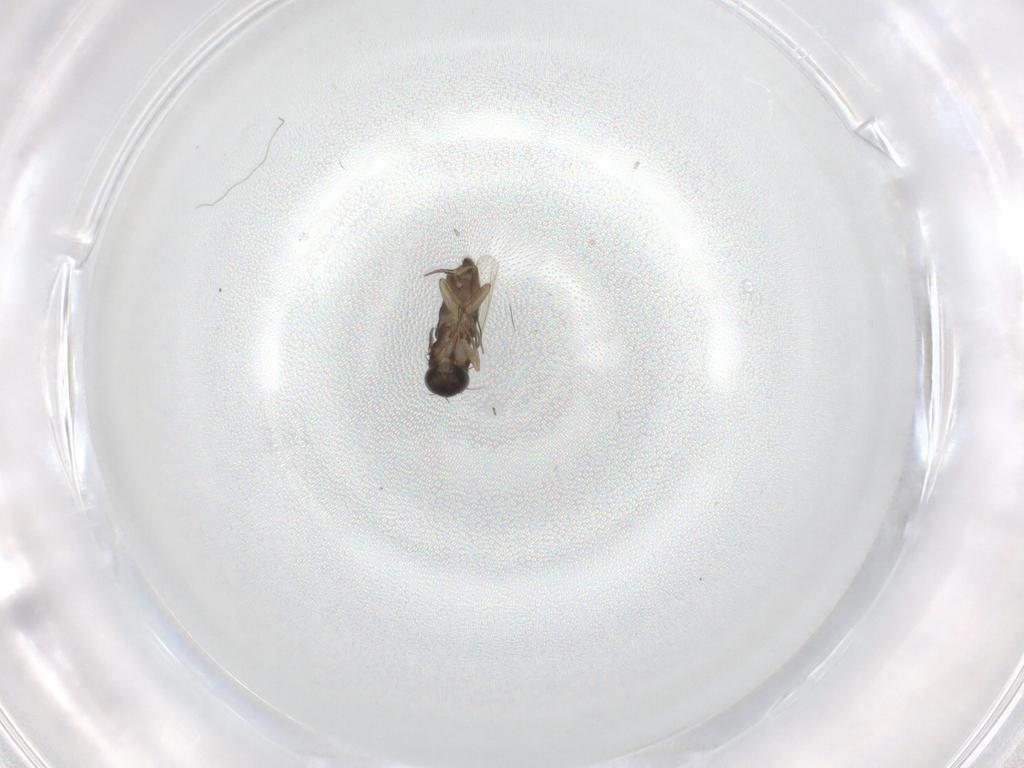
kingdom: Animalia
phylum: Arthropoda
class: Insecta
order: Diptera
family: Phoridae
